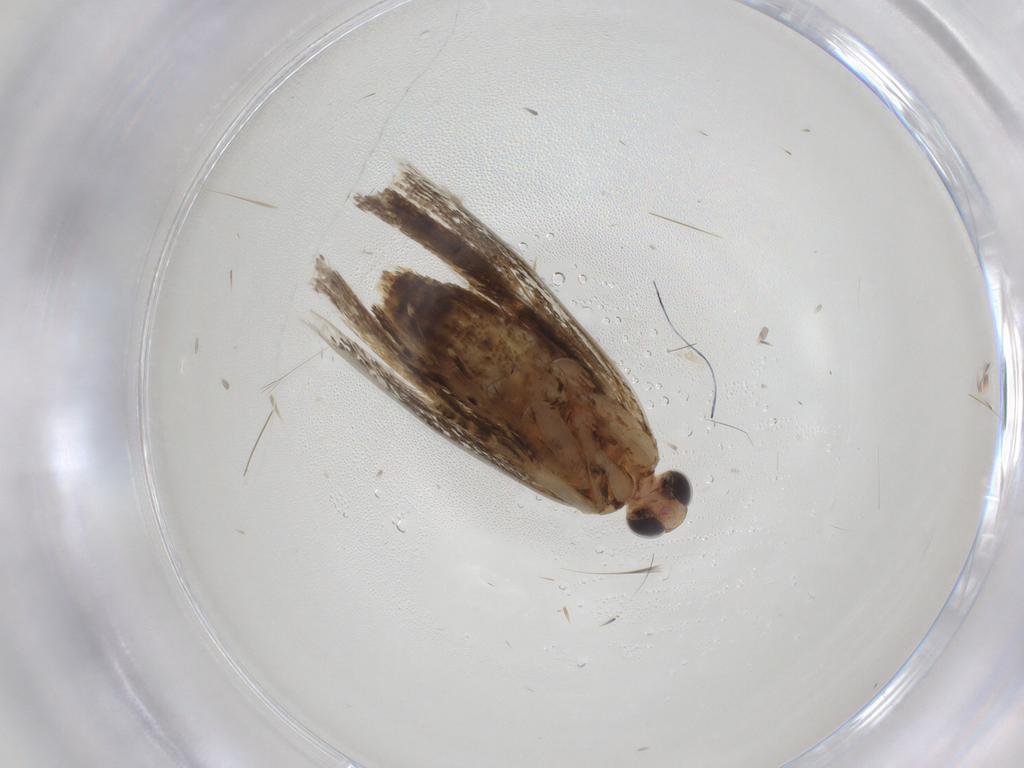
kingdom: Animalia
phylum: Arthropoda
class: Insecta
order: Lepidoptera
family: Gelechiidae
